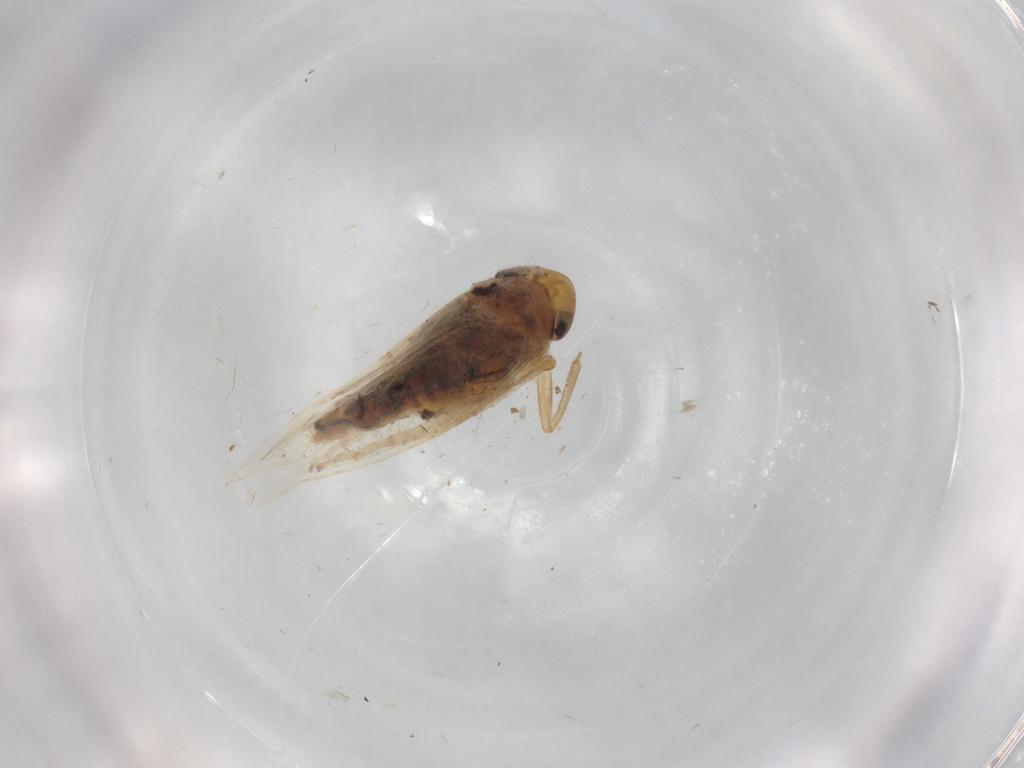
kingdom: Animalia
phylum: Arthropoda
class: Insecta
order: Hemiptera
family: Cicadellidae
